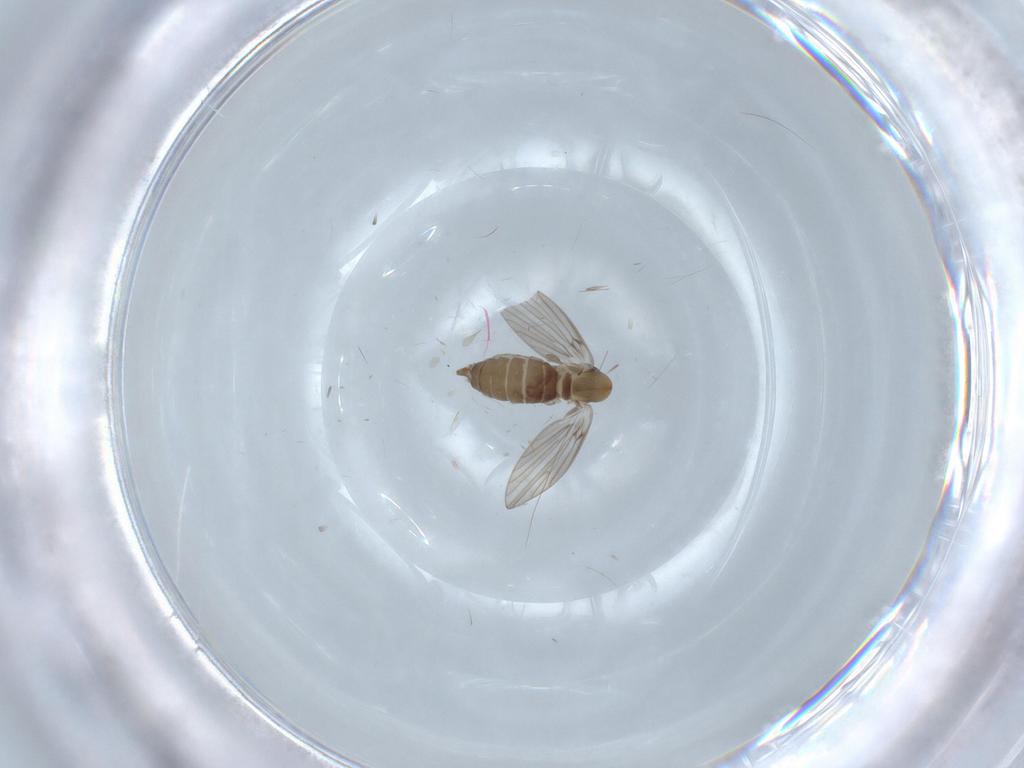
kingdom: Animalia
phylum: Arthropoda
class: Insecta
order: Diptera
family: Psychodidae
